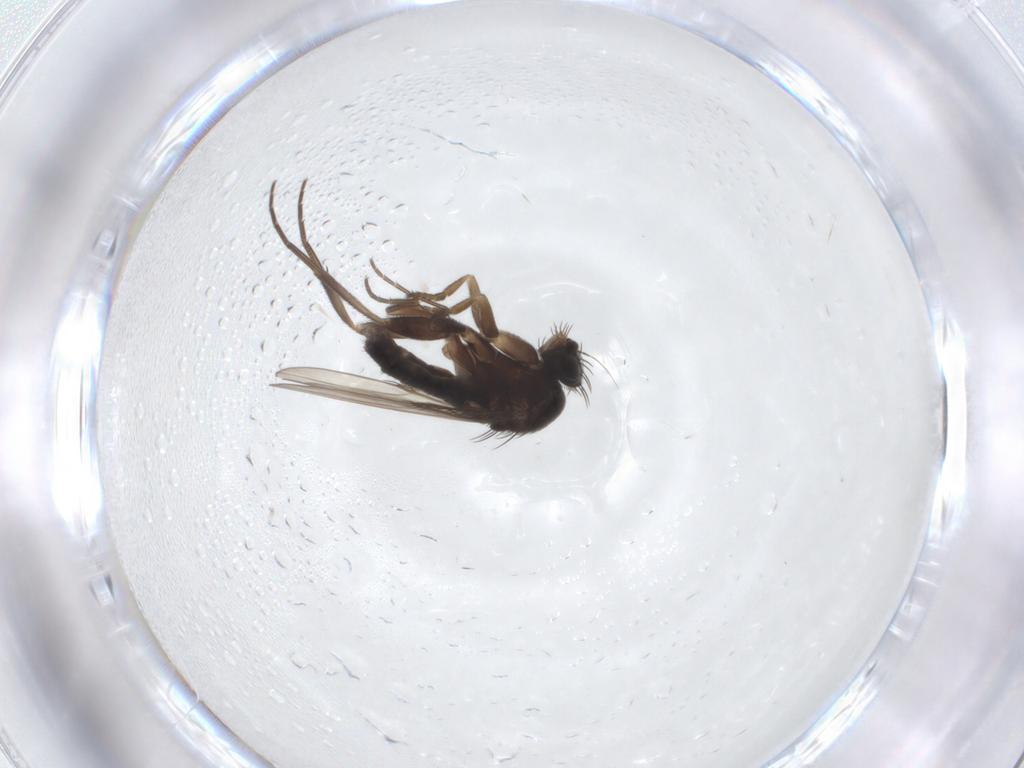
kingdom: Animalia
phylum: Arthropoda
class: Insecta
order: Diptera
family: Phoridae
